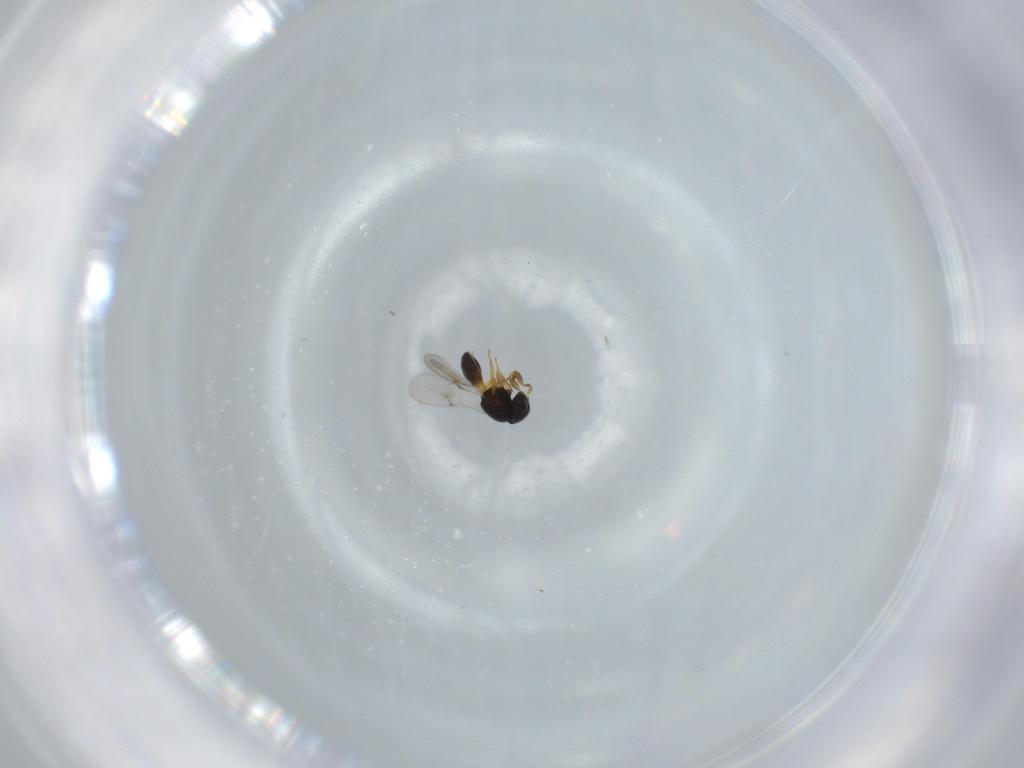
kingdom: Animalia
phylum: Arthropoda
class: Insecta
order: Hymenoptera
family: Scelionidae
